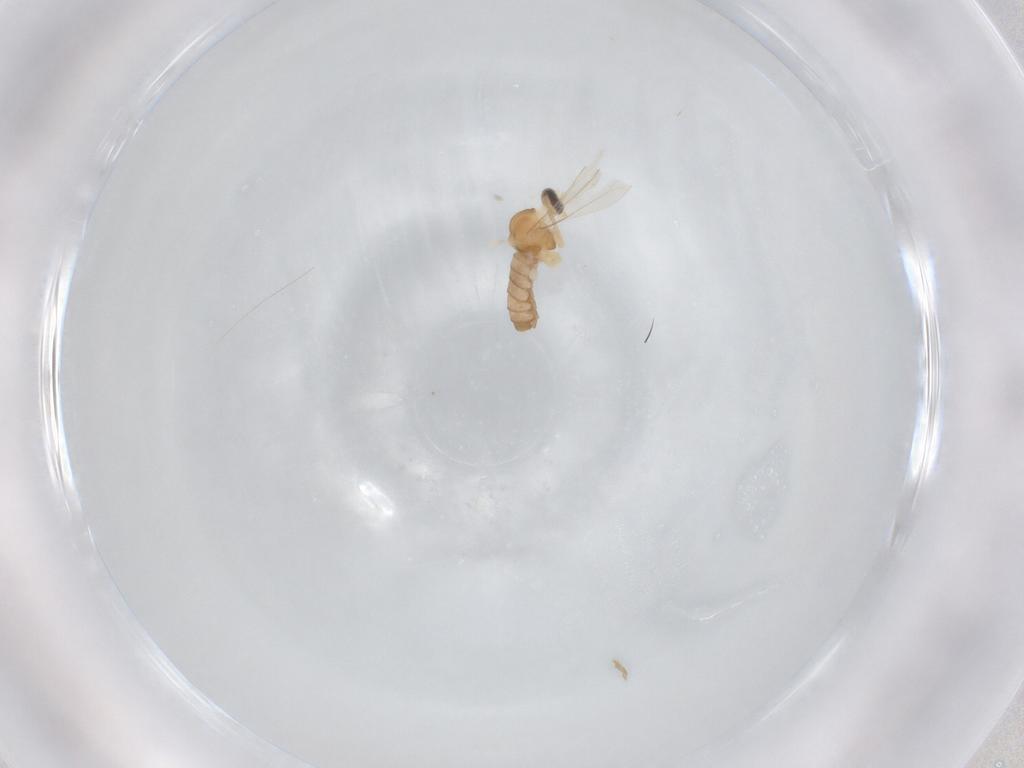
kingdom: Animalia
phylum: Arthropoda
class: Insecta
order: Diptera
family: Cecidomyiidae
